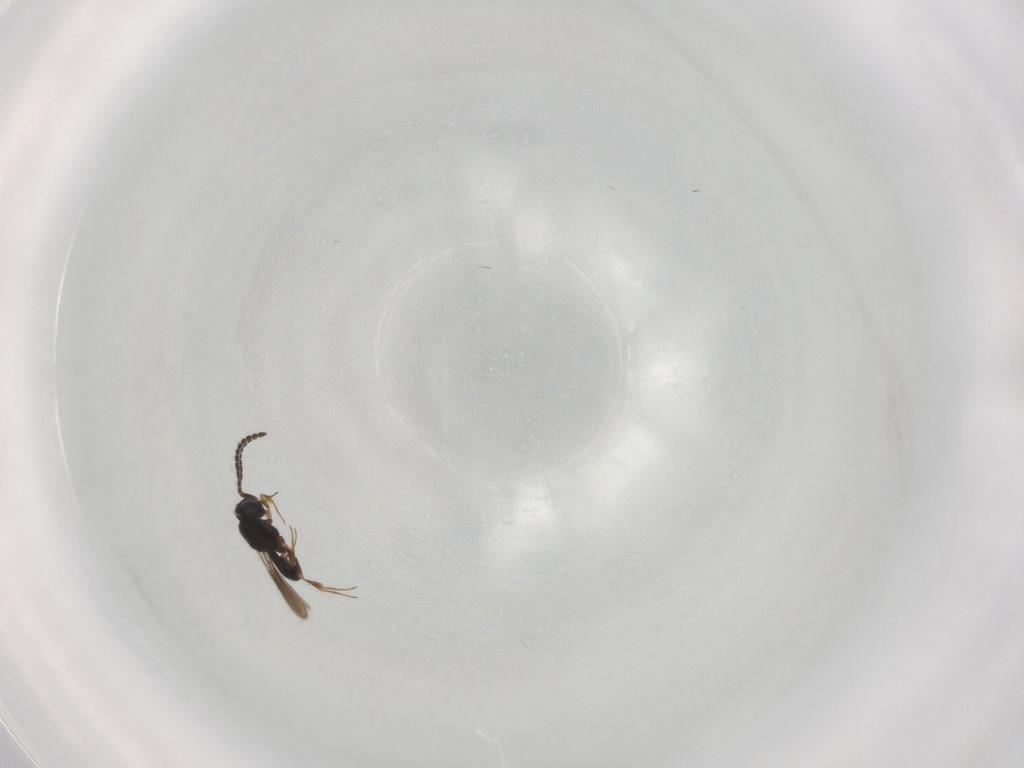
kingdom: Animalia
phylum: Arthropoda
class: Insecta
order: Hymenoptera
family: Scelionidae
